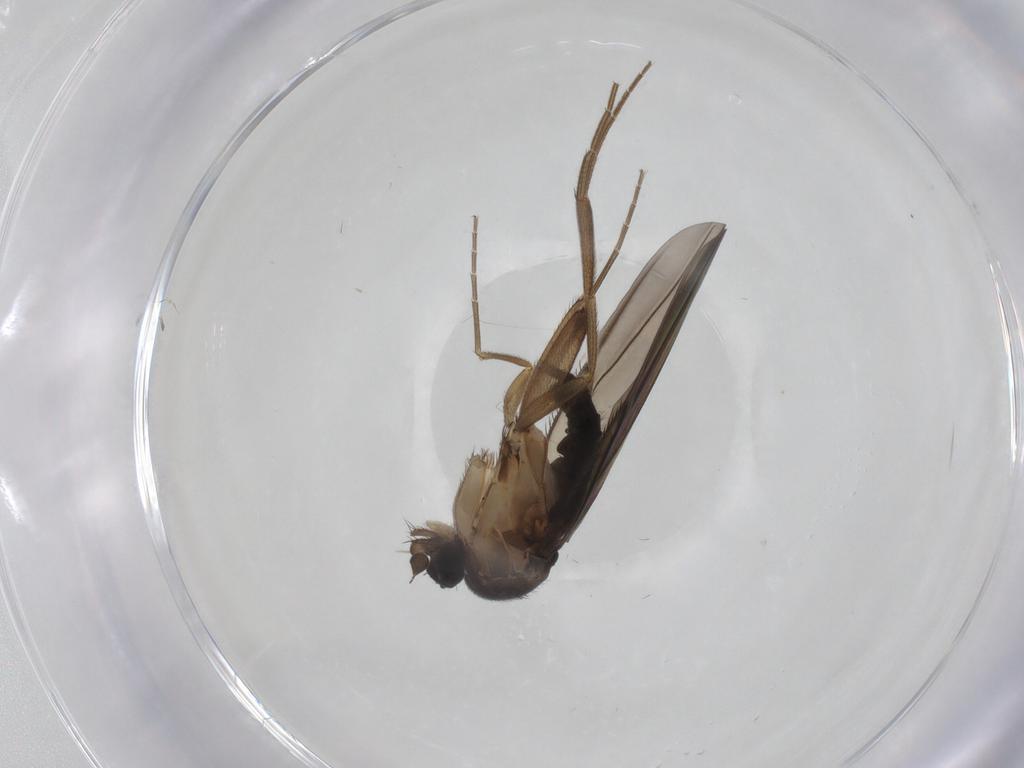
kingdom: Animalia
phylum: Arthropoda
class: Insecta
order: Diptera
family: Phoridae
